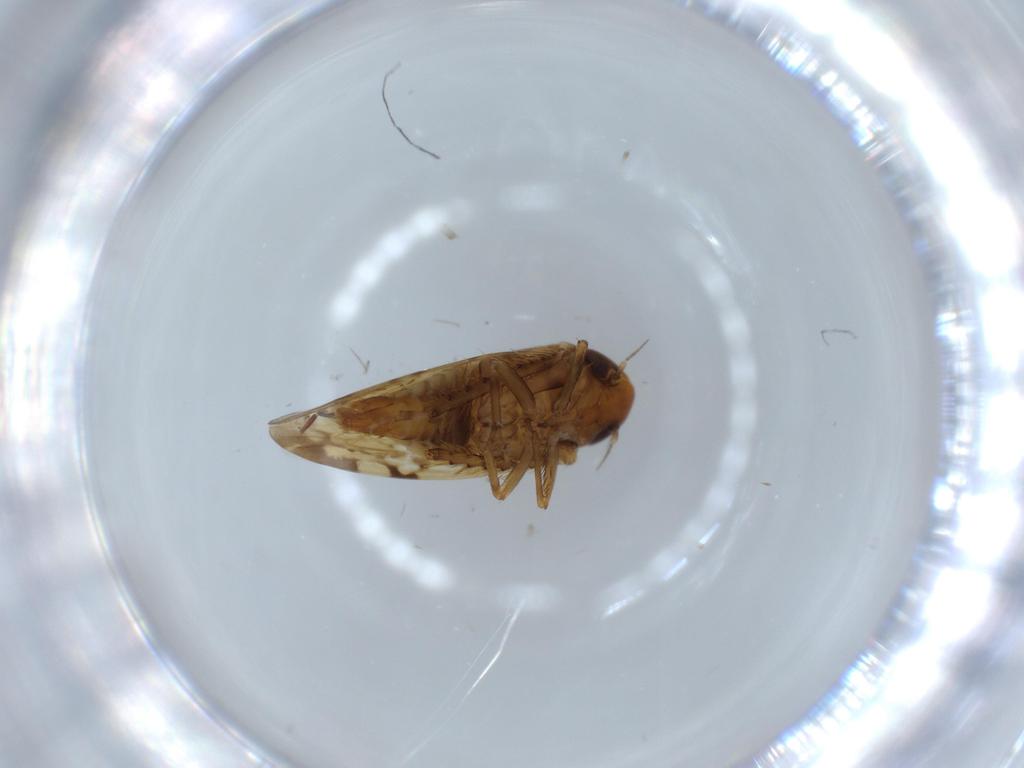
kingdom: Animalia
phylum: Arthropoda
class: Insecta
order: Hemiptera
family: Cicadellidae
